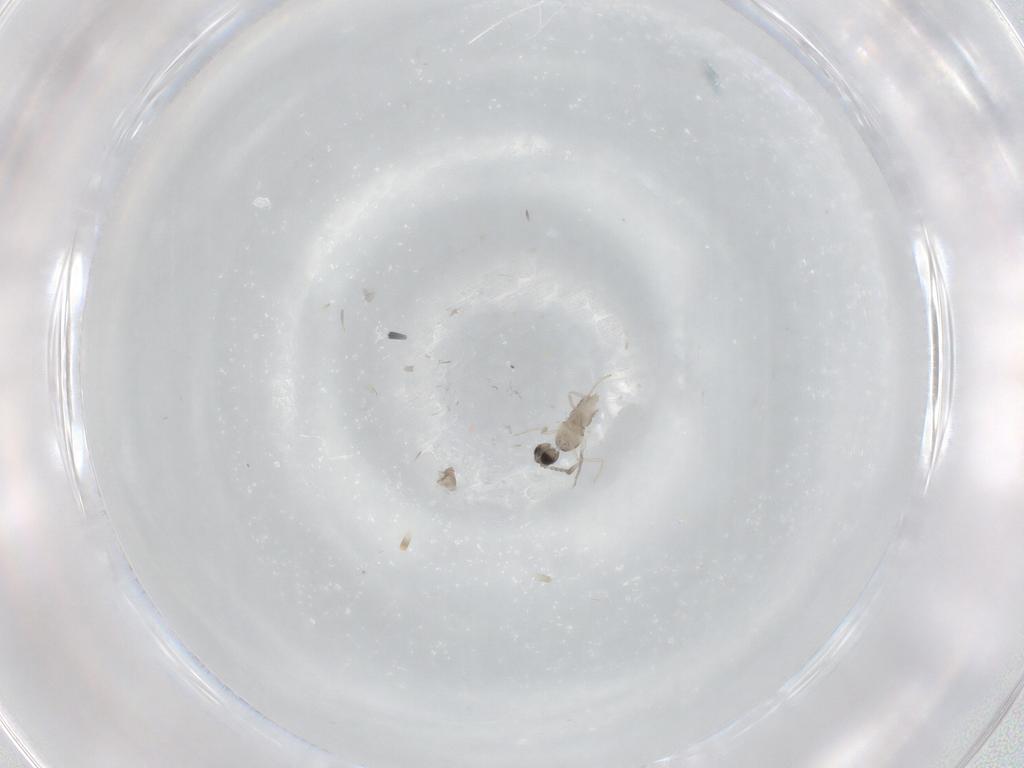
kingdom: Animalia
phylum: Arthropoda
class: Insecta
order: Diptera
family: Cecidomyiidae
